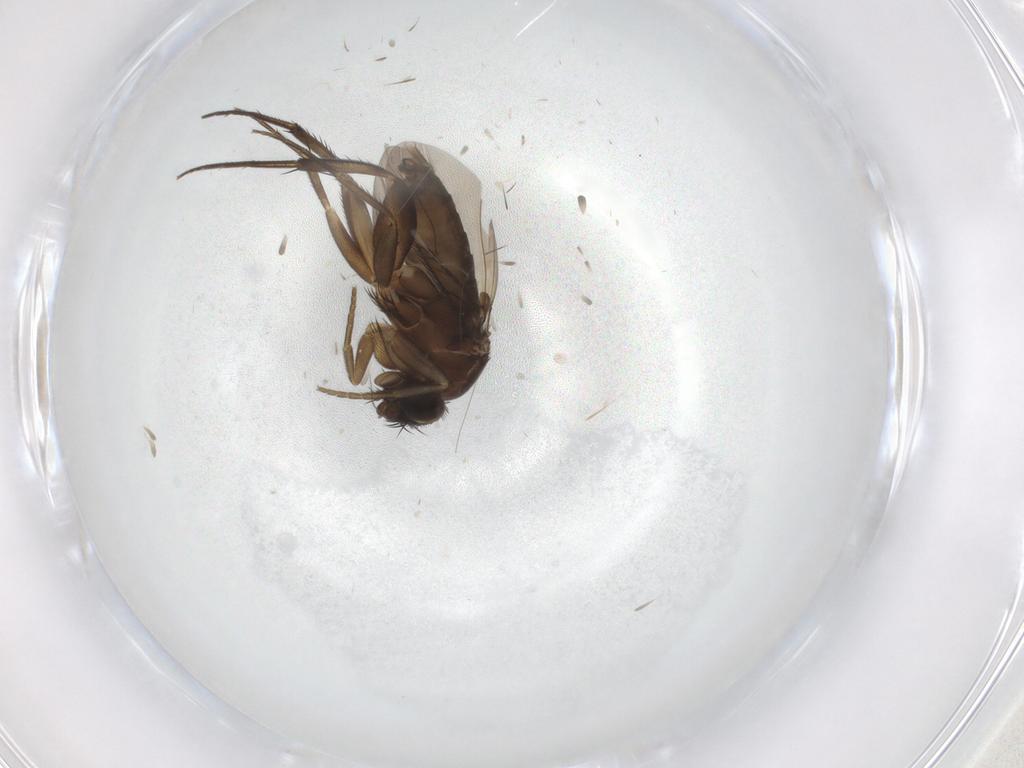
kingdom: Animalia
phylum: Arthropoda
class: Insecta
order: Diptera
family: Phoridae
